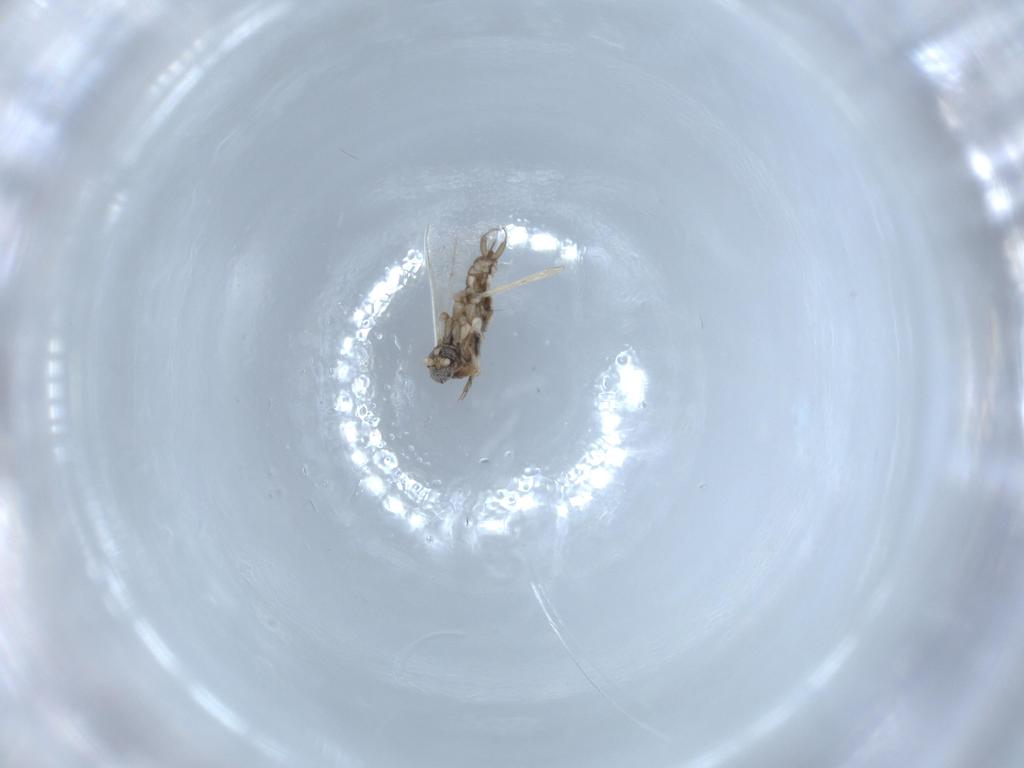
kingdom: Animalia
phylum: Arthropoda
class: Insecta
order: Diptera
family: Cecidomyiidae
